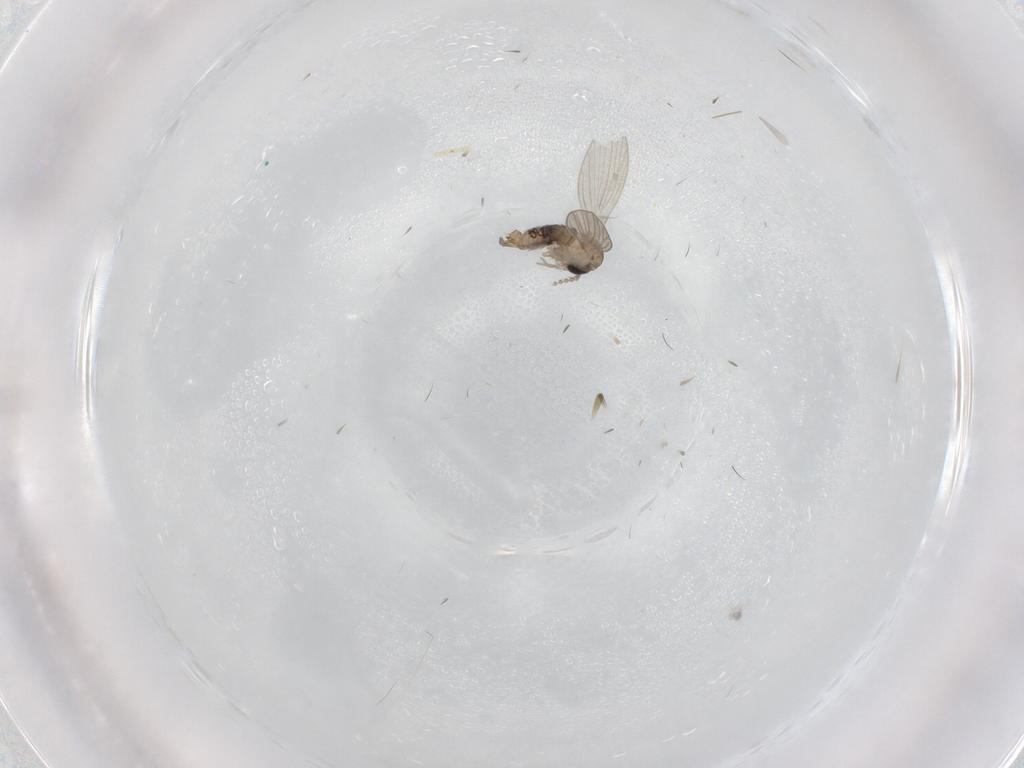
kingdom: Animalia
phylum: Arthropoda
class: Insecta
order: Diptera
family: Psychodidae
